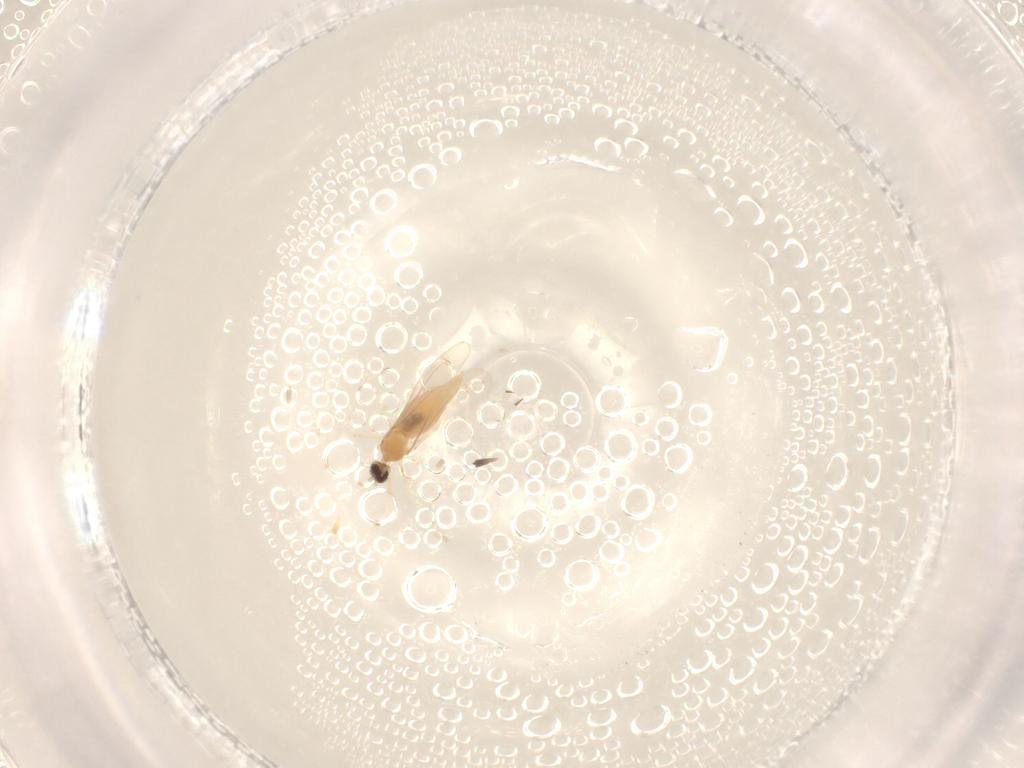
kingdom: Animalia
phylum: Arthropoda
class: Insecta
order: Diptera
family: Cecidomyiidae
